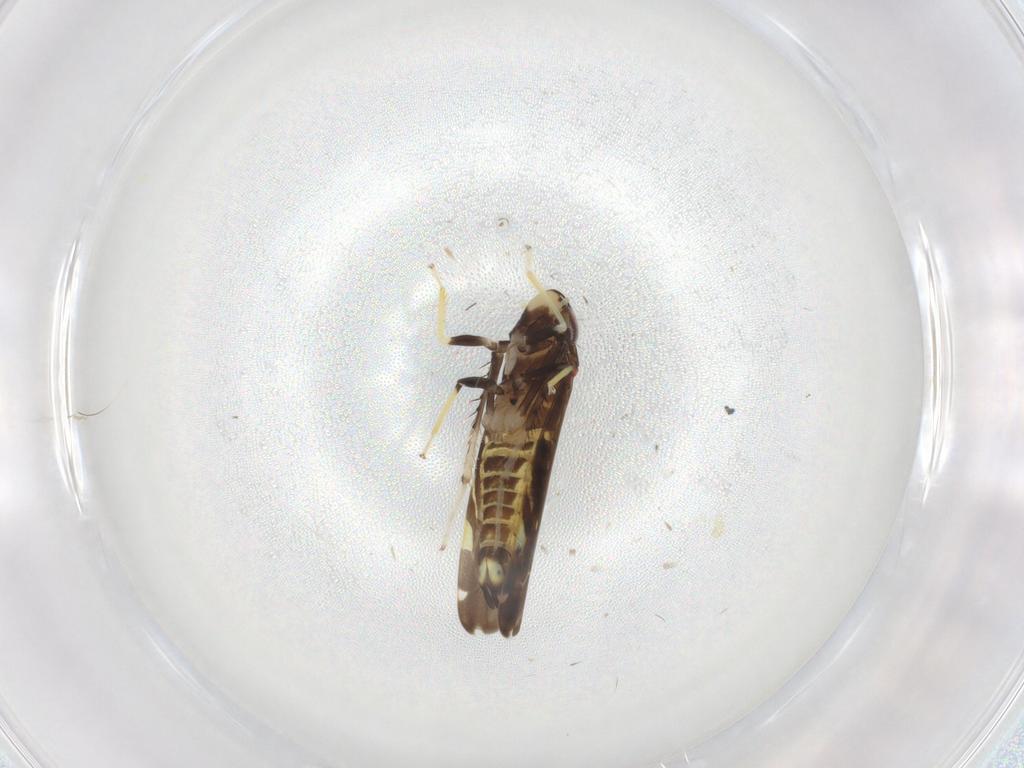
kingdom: Animalia
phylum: Arthropoda
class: Insecta
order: Hemiptera
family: Cicadellidae
